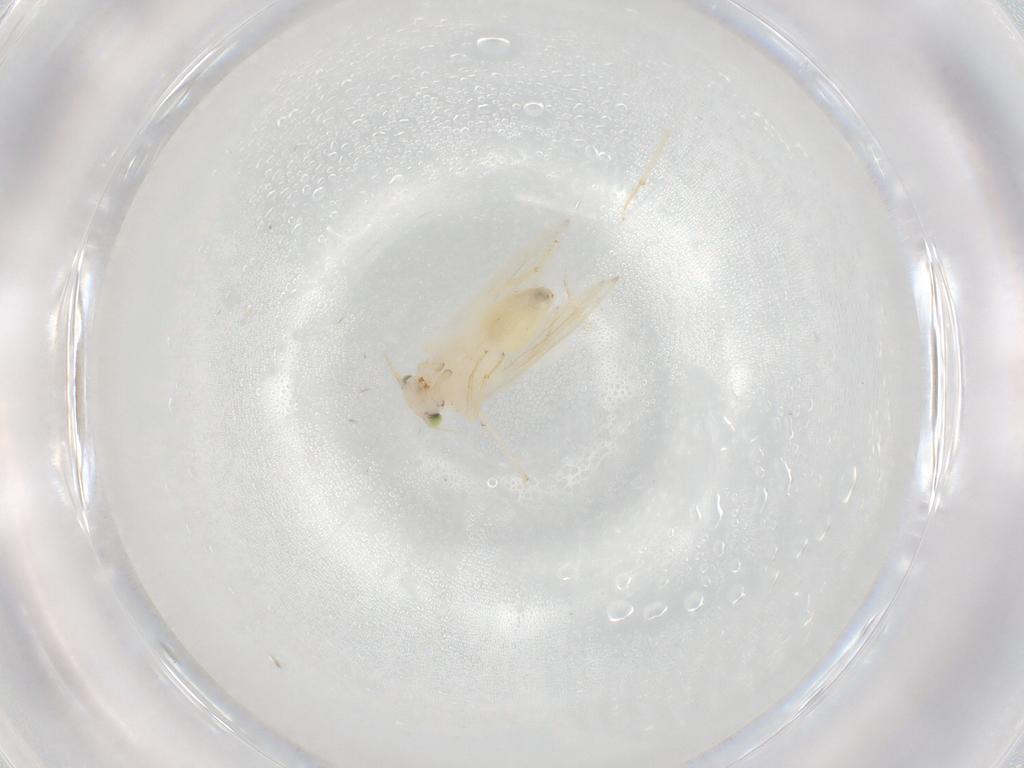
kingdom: Animalia
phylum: Arthropoda
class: Insecta
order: Psocodea
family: Lepidopsocidae
